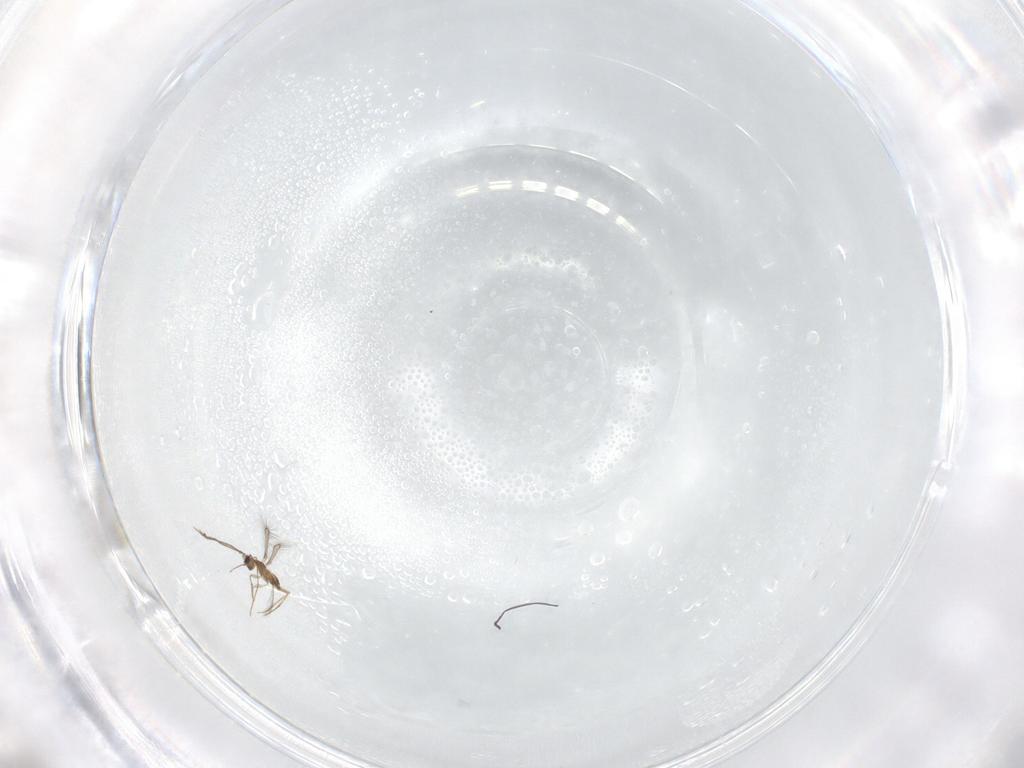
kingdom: Animalia
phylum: Arthropoda
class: Insecta
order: Hymenoptera
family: Mymaridae
